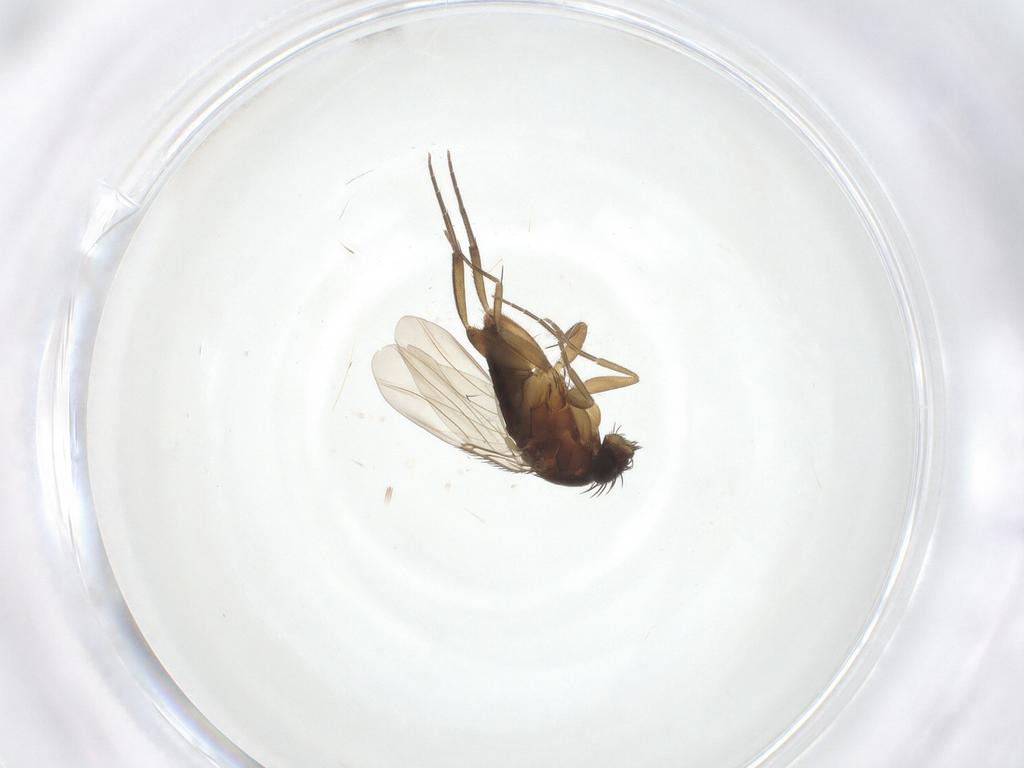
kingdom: Animalia
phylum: Arthropoda
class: Insecta
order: Diptera
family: Phoridae
